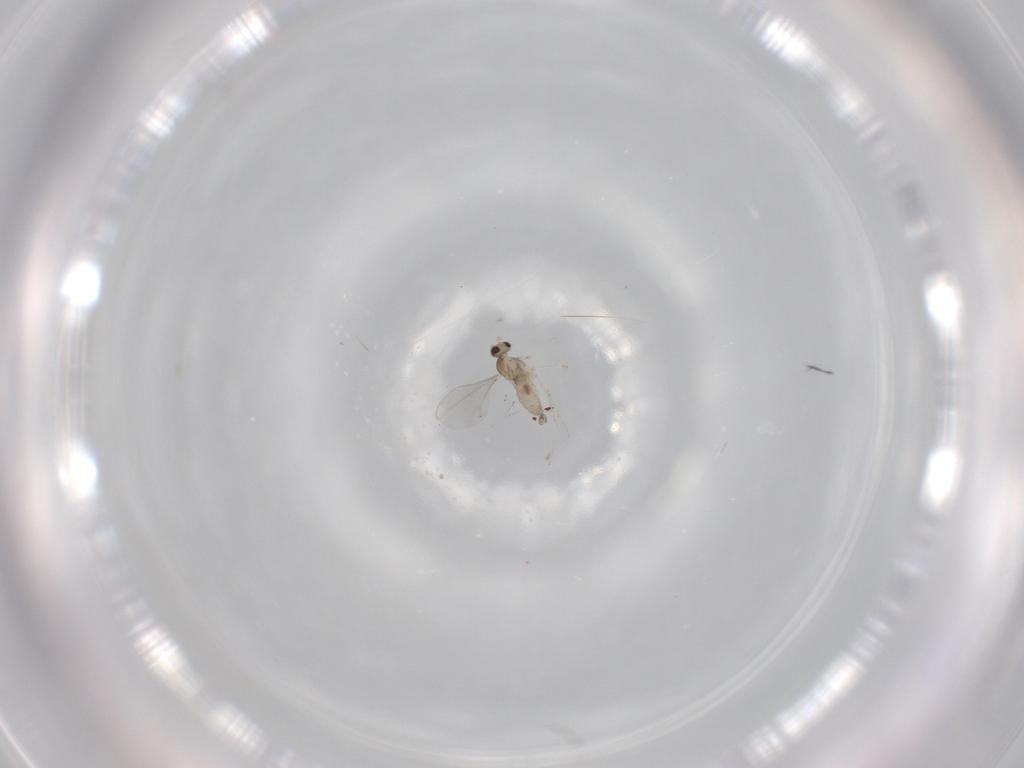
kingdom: Animalia
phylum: Arthropoda
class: Insecta
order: Diptera
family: Cecidomyiidae
